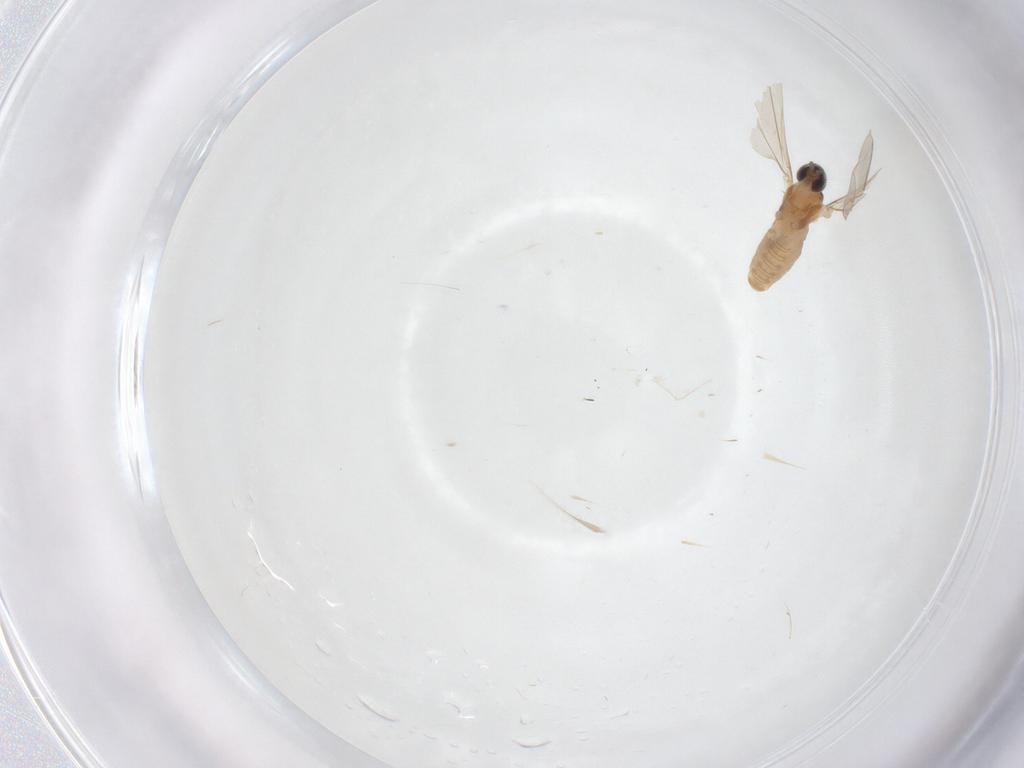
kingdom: Animalia
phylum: Arthropoda
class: Insecta
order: Diptera
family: Cecidomyiidae
